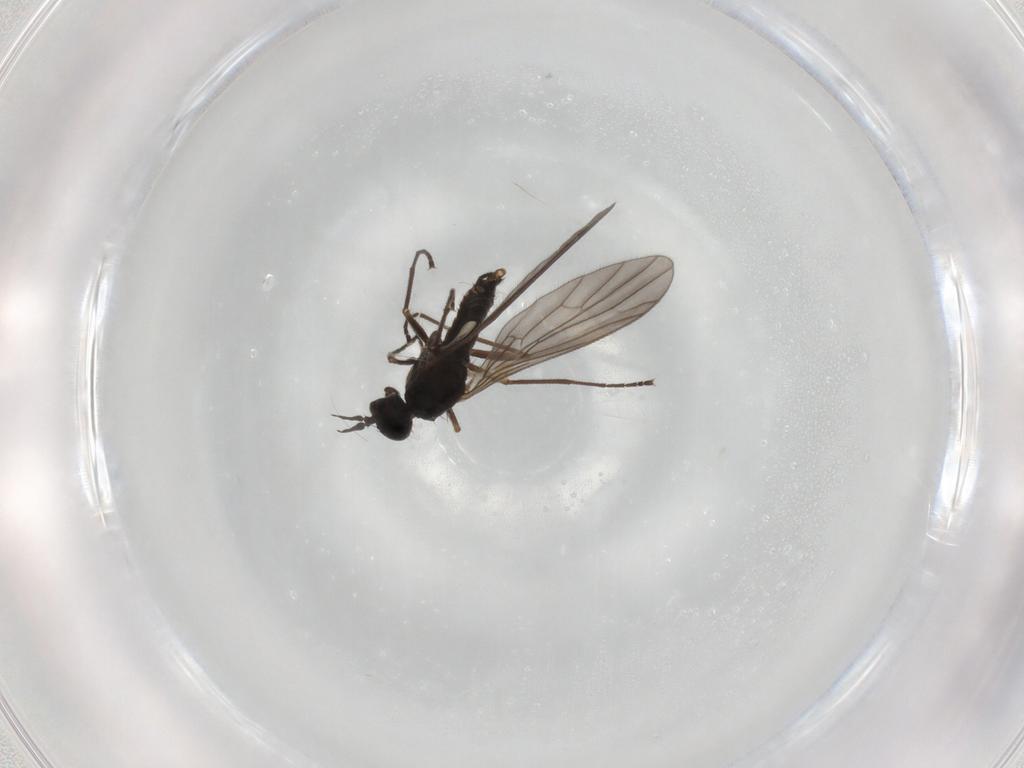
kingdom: Animalia
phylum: Arthropoda
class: Insecta
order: Diptera
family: Empididae
